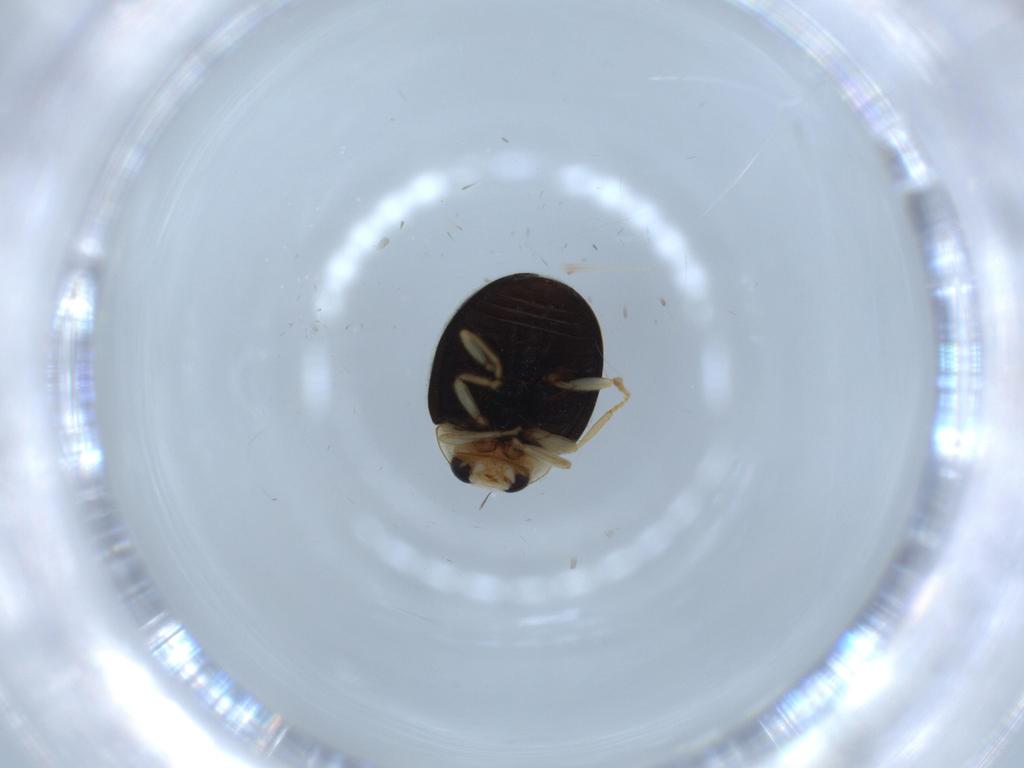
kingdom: Animalia
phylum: Arthropoda
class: Insecta
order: Coleoptera
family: Coccinellidae
